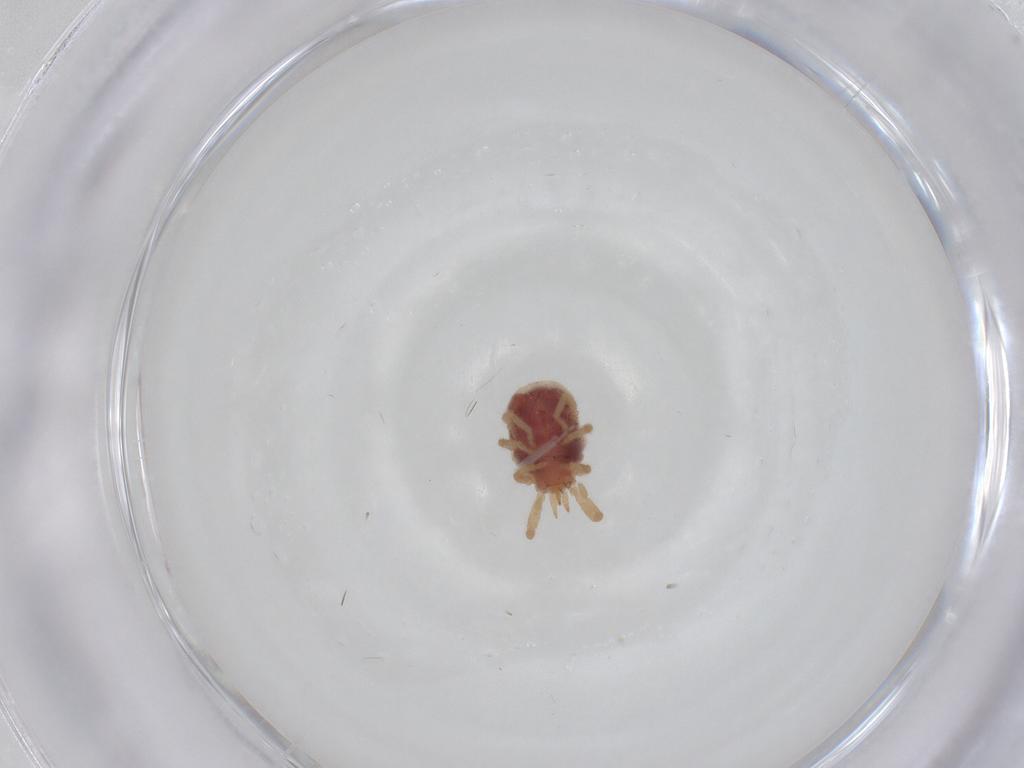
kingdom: Animalia
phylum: Arthropoda
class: Arachnida
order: Trombidiformes
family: Erythraeidae
